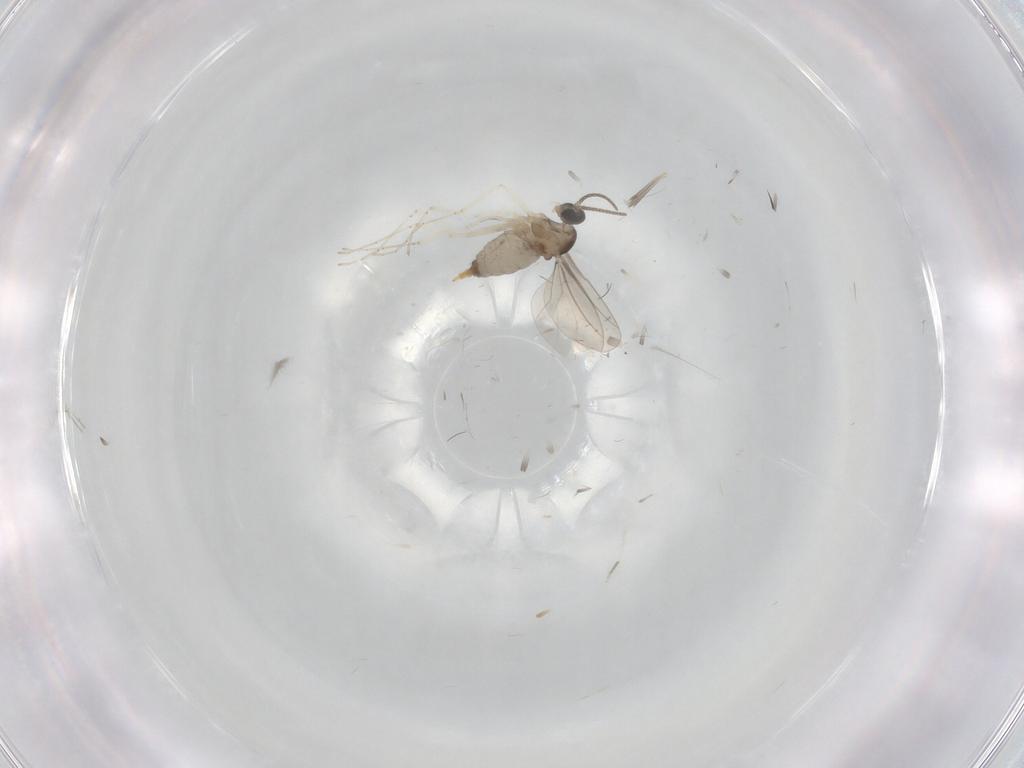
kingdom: Animalia
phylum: Arthropoda
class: Insecta
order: Diptera
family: Cecidomyiidae
